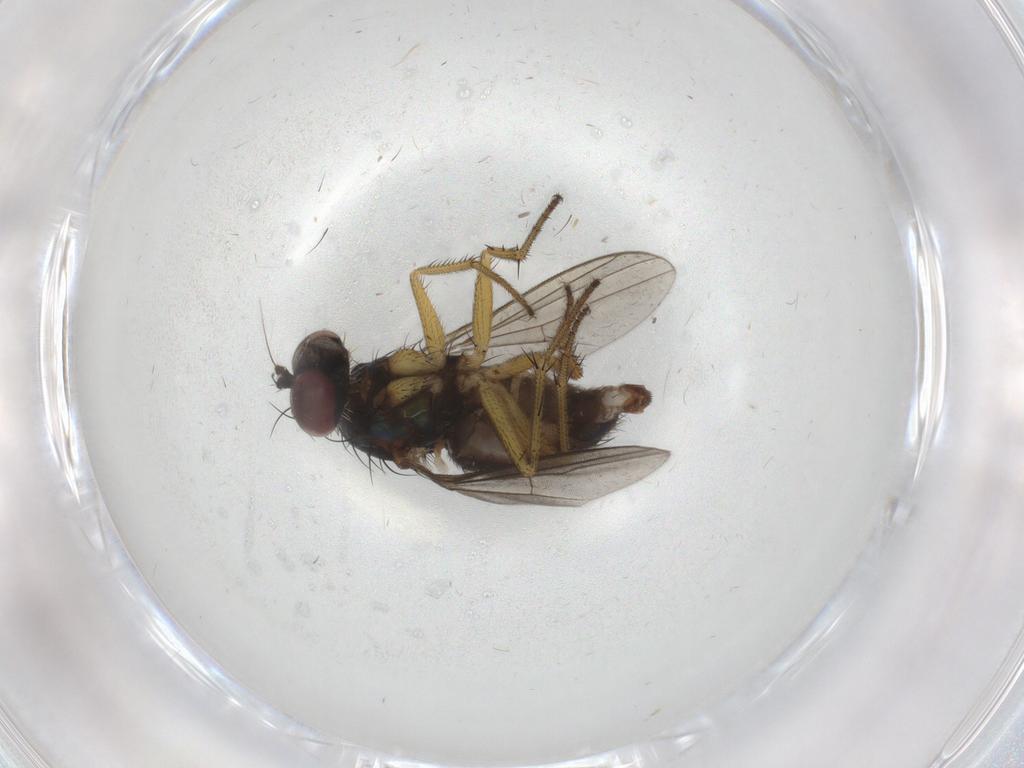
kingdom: Animalia
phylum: Arthropoda
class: Insecta
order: Diptera
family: Dolichopodidae
